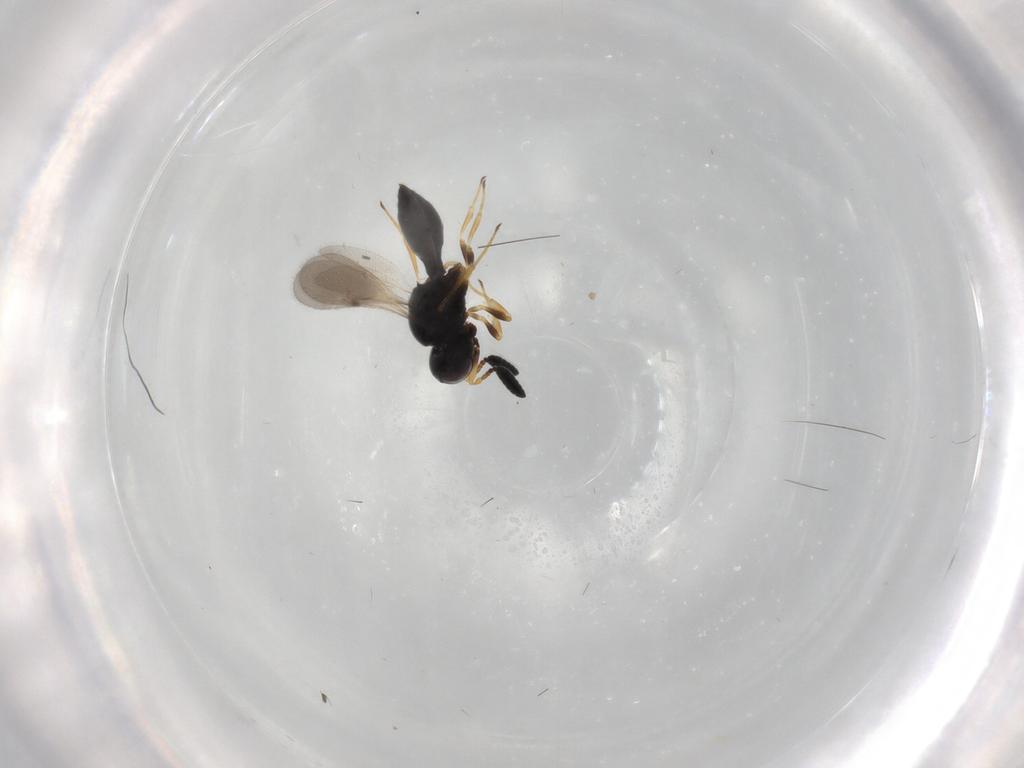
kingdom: Animalia
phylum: Arthropoda
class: Insecta
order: Hymenoptera
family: Scelionidae
